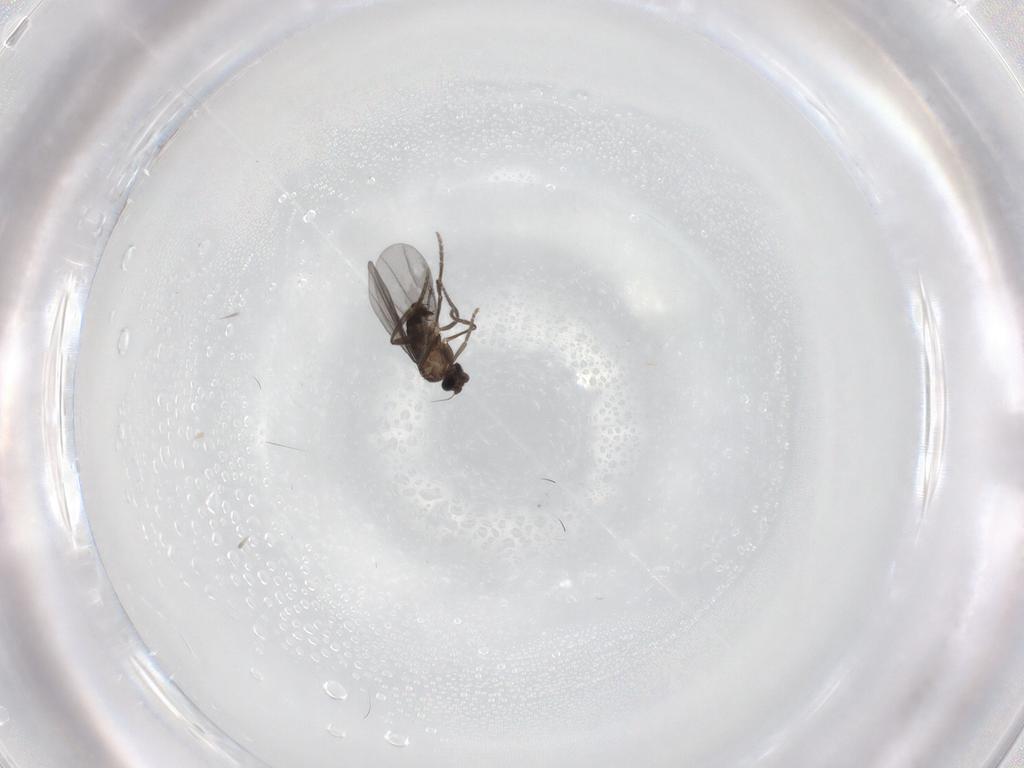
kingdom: Animalia
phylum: Arthropoda
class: Insecta
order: Diptera
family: Phoridae
